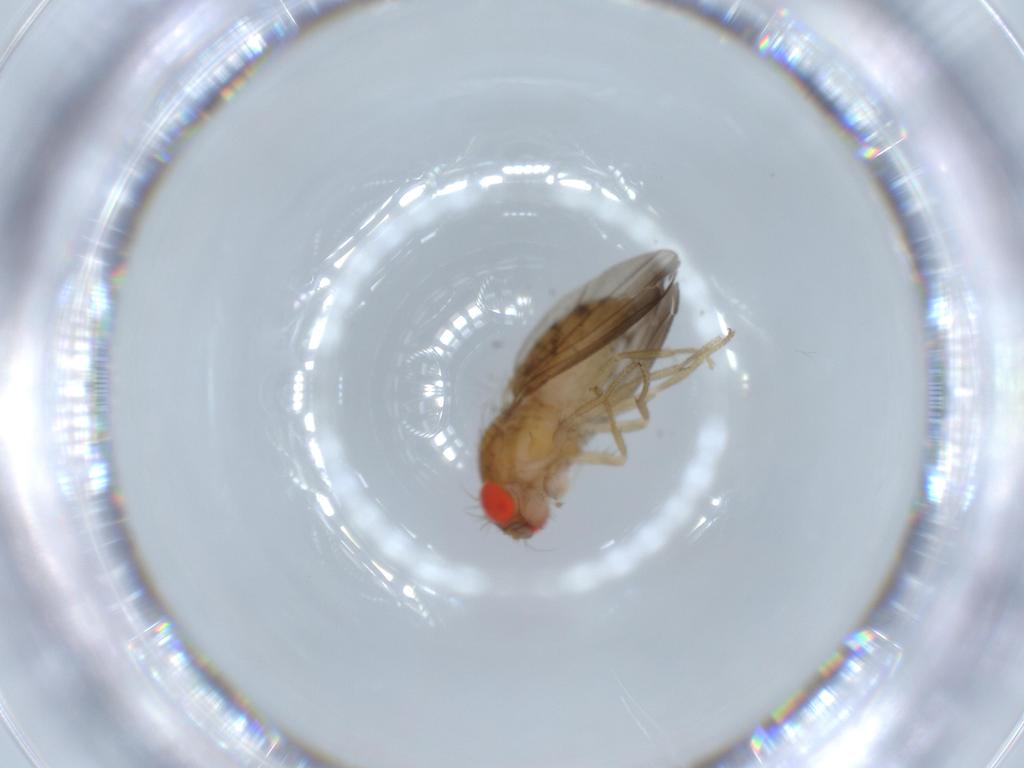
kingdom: Animalia
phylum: Arthropoda
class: Insecta
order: Diptera
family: Drosophilidae
